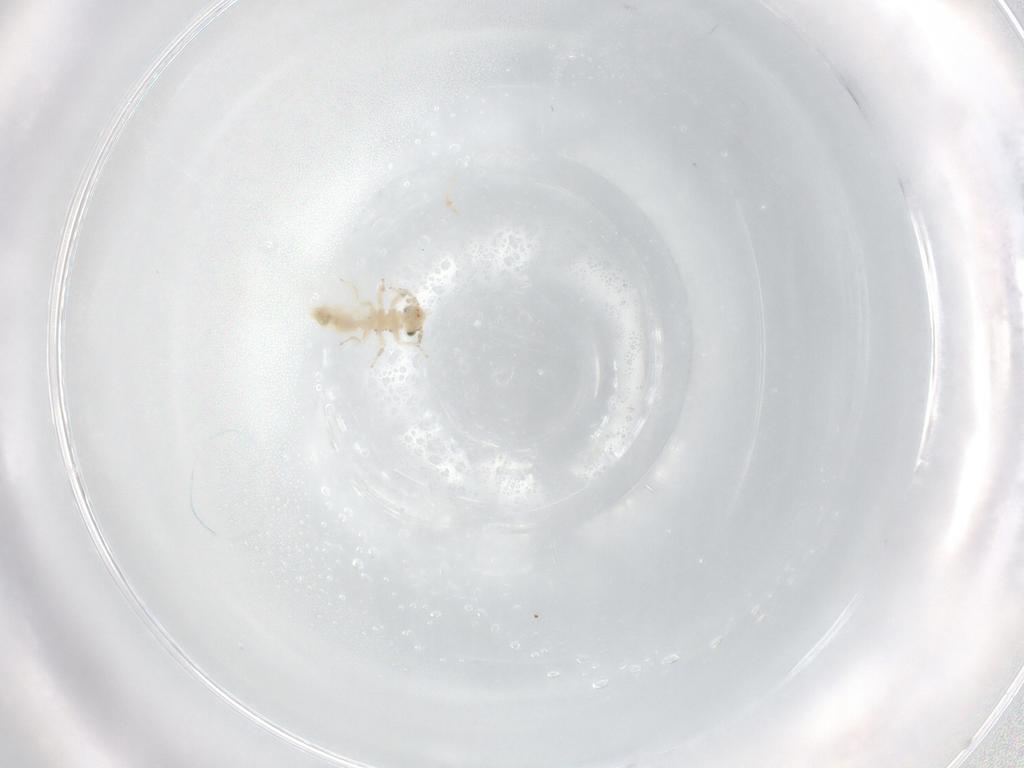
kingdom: Animalia
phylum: Arthropoda
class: Insecta
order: Psocodea
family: Lepidopsocidae
